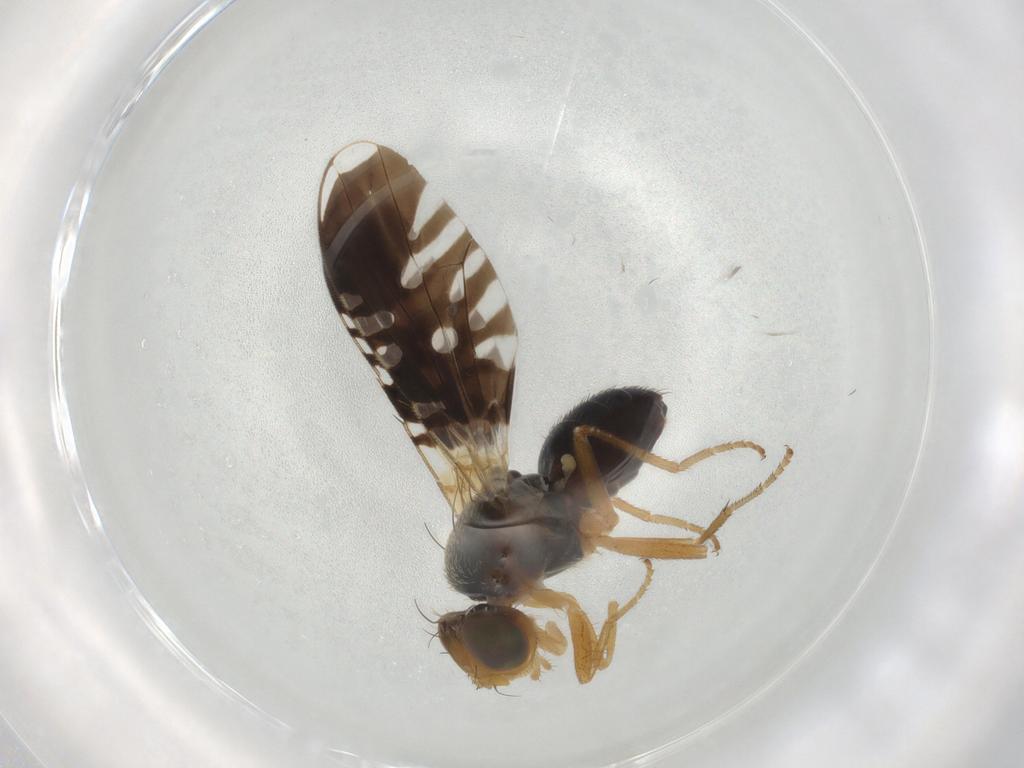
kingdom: Animalia
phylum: Arthropoda
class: Insecta
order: Diptera
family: Tephritidae
